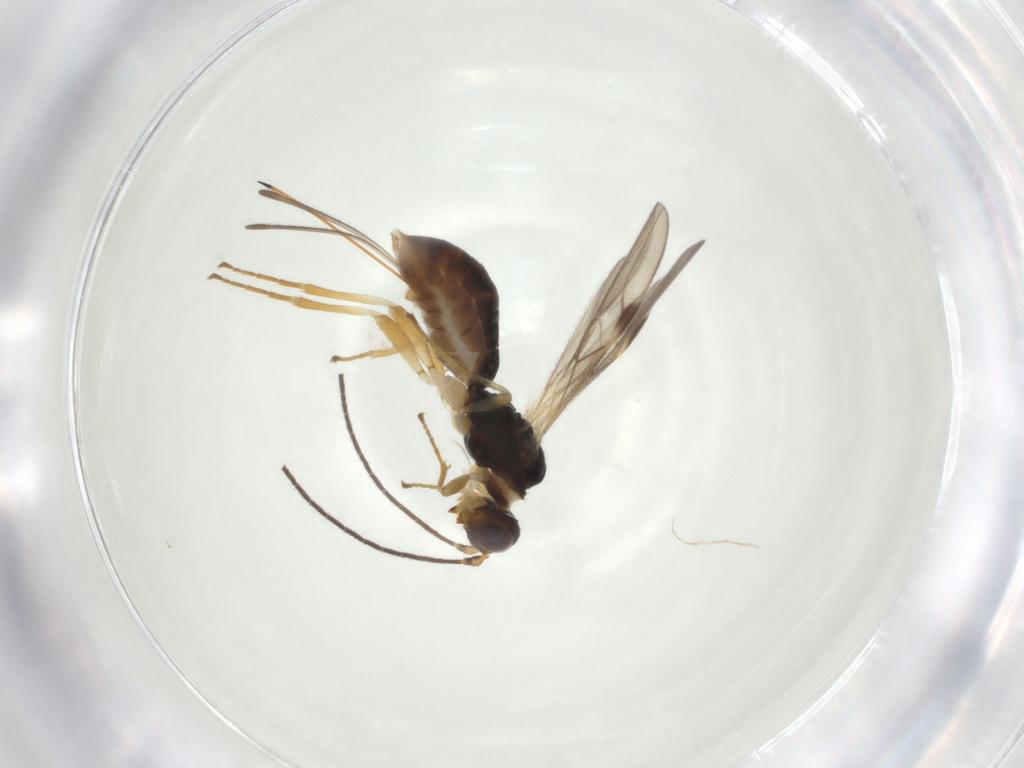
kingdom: Animalia
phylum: Arthropoda
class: Insecta
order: Hymenoptera
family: Braconidae
